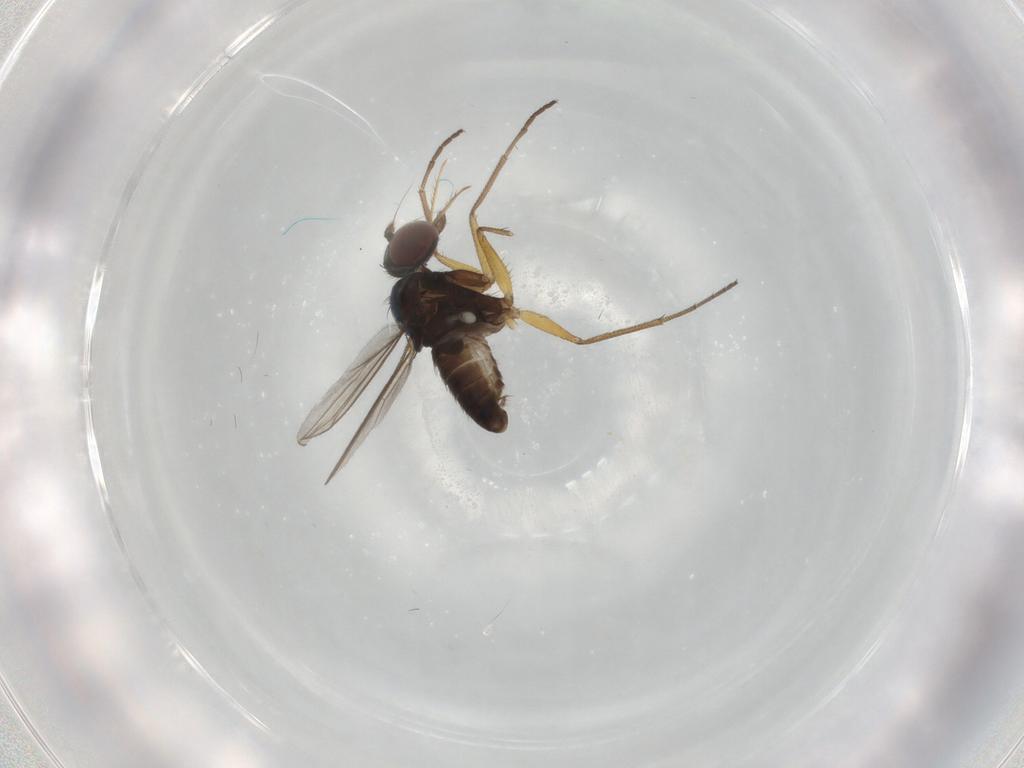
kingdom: Animalia
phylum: Arthropoda
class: Insecta
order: Diptera
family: Dolichopodidae
